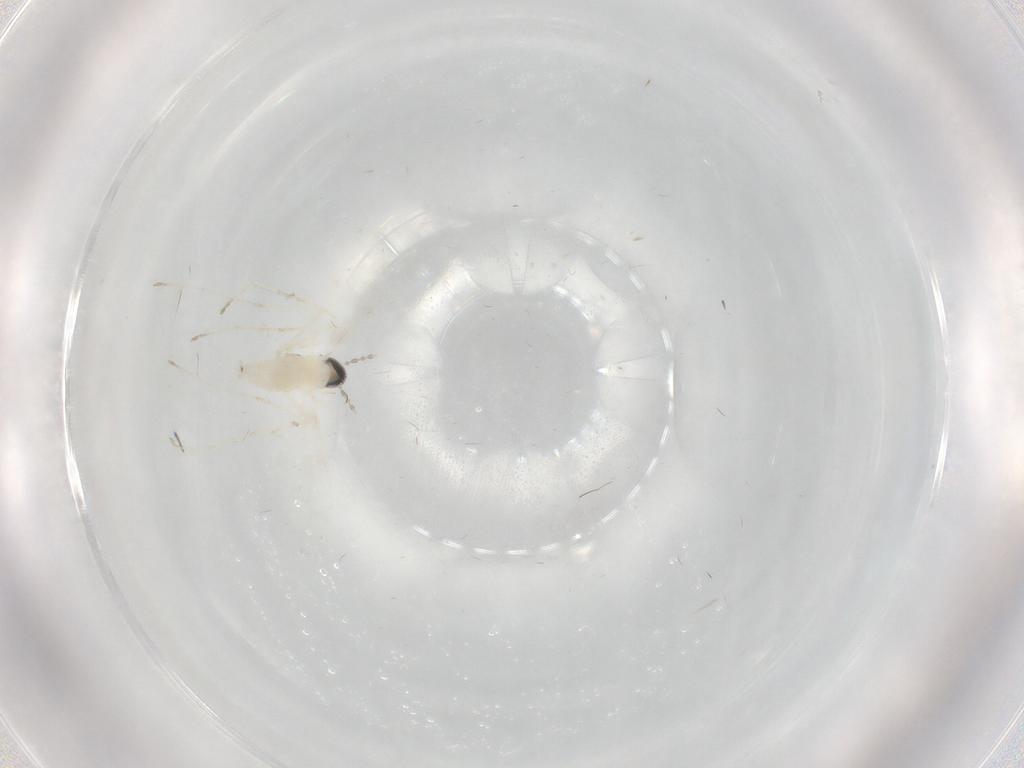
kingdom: Animalia
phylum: Arthropoda
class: Insecta
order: Diptera
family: Cecidomyiidae
